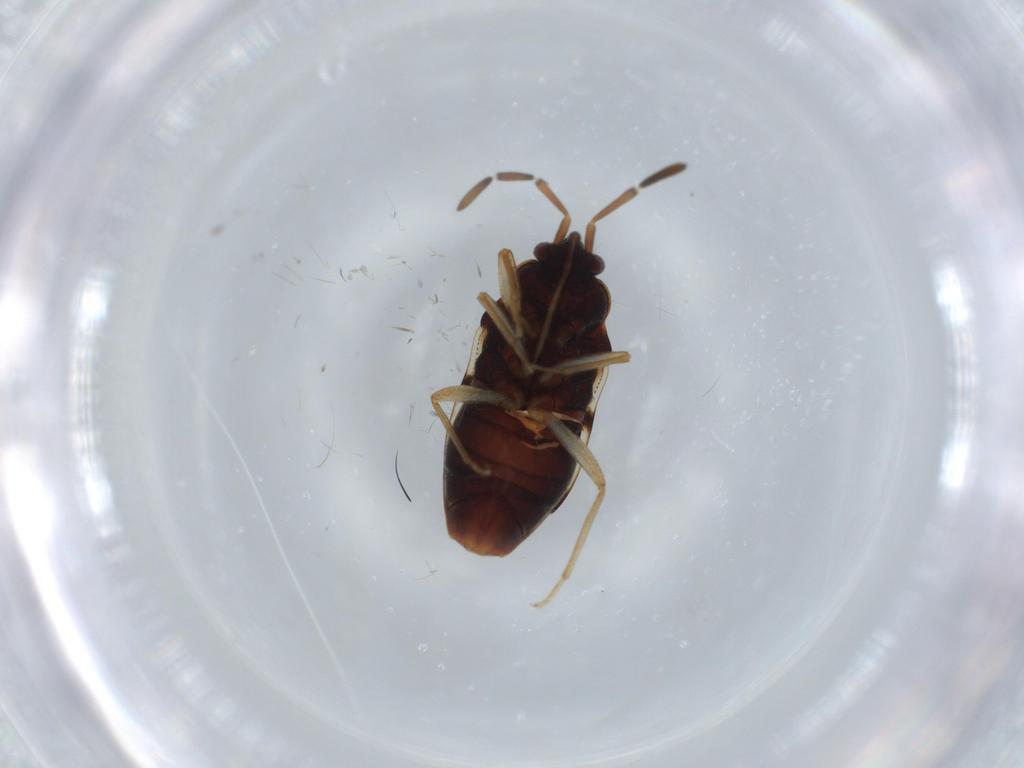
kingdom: Animalia
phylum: Arthropoda
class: Insecta
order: Hemiptera
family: Rhyparochromidae
